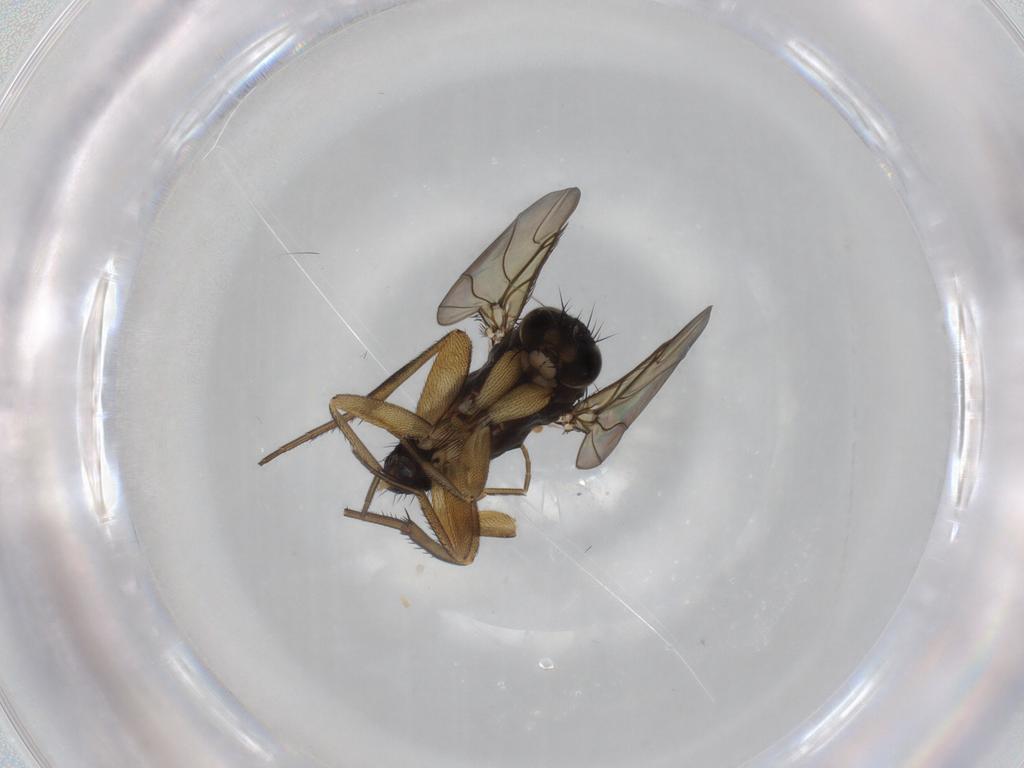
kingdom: Animalia
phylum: Arthropoda
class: Insecta
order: Diptera
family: Phoridae
